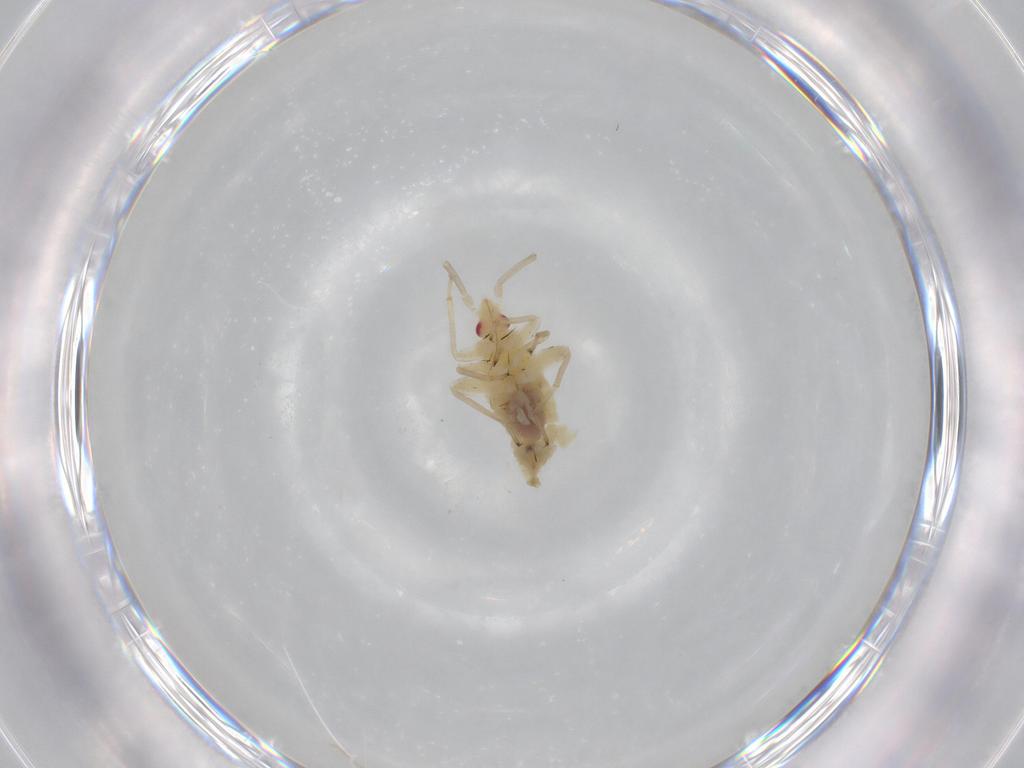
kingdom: Animalia
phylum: Arthropoda
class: Insecta
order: Hemiptera
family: Miridae
